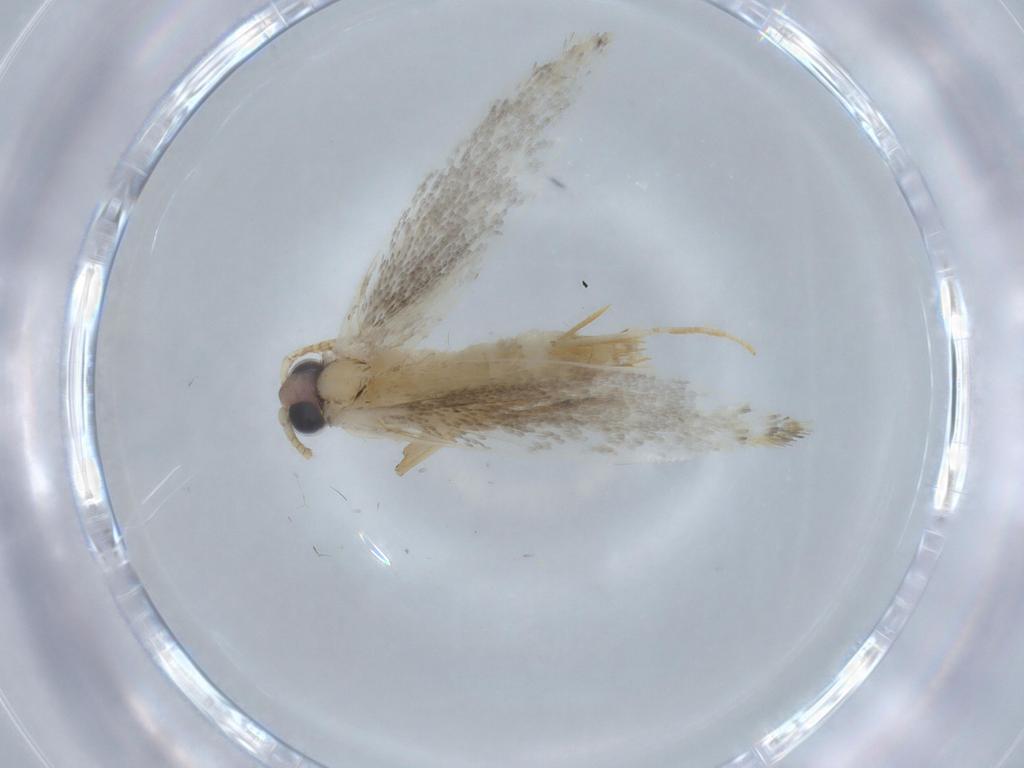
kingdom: Animalia
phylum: Arthropoda
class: Insecta
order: Lepidoptera
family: Tineidae
